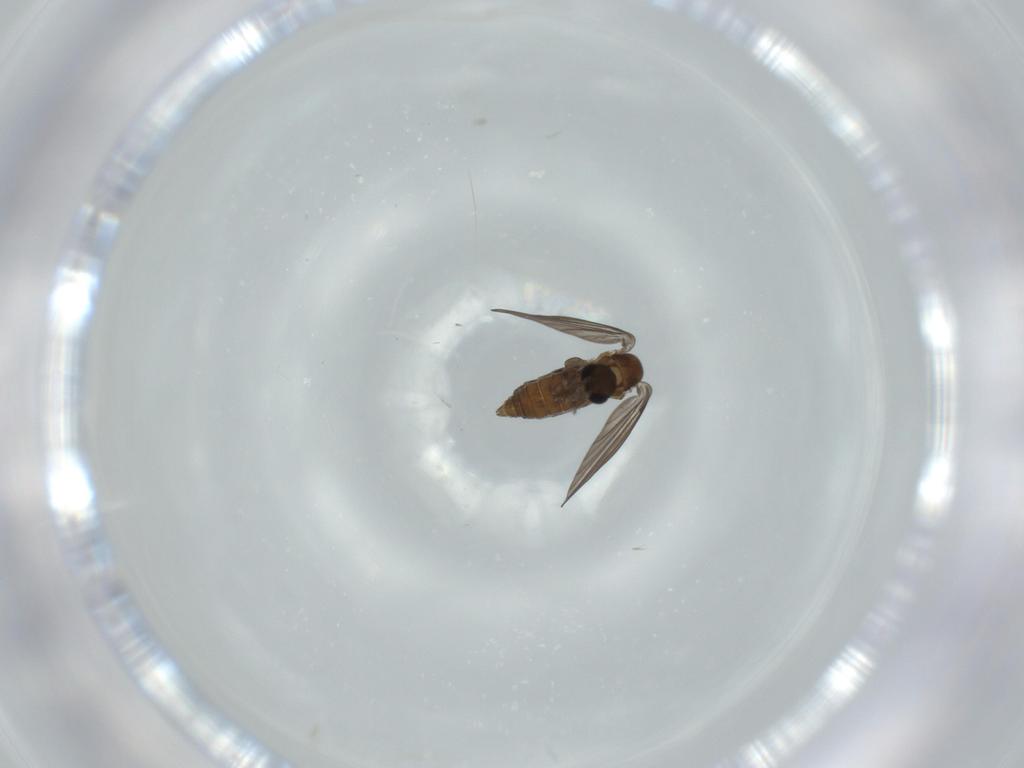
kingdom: Animalia
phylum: Arthropoda
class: Insecta
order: Diptera
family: Psychodidae
